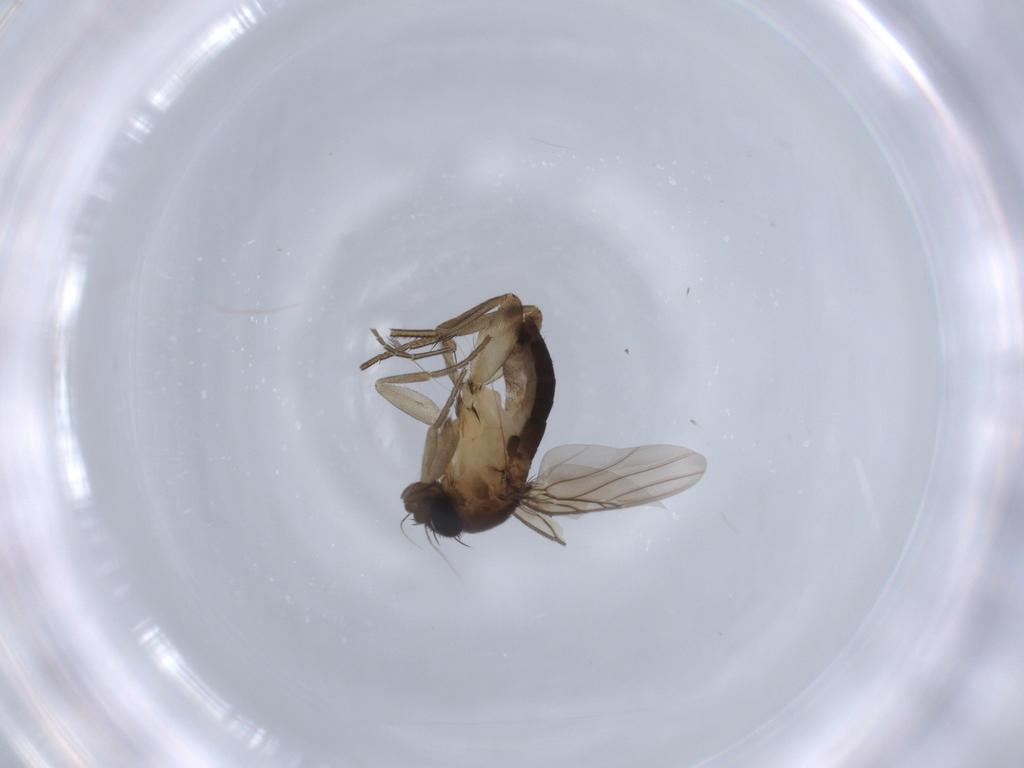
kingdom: Animalia
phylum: Arthropoda
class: Insecta
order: Diptera
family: Phoridae
